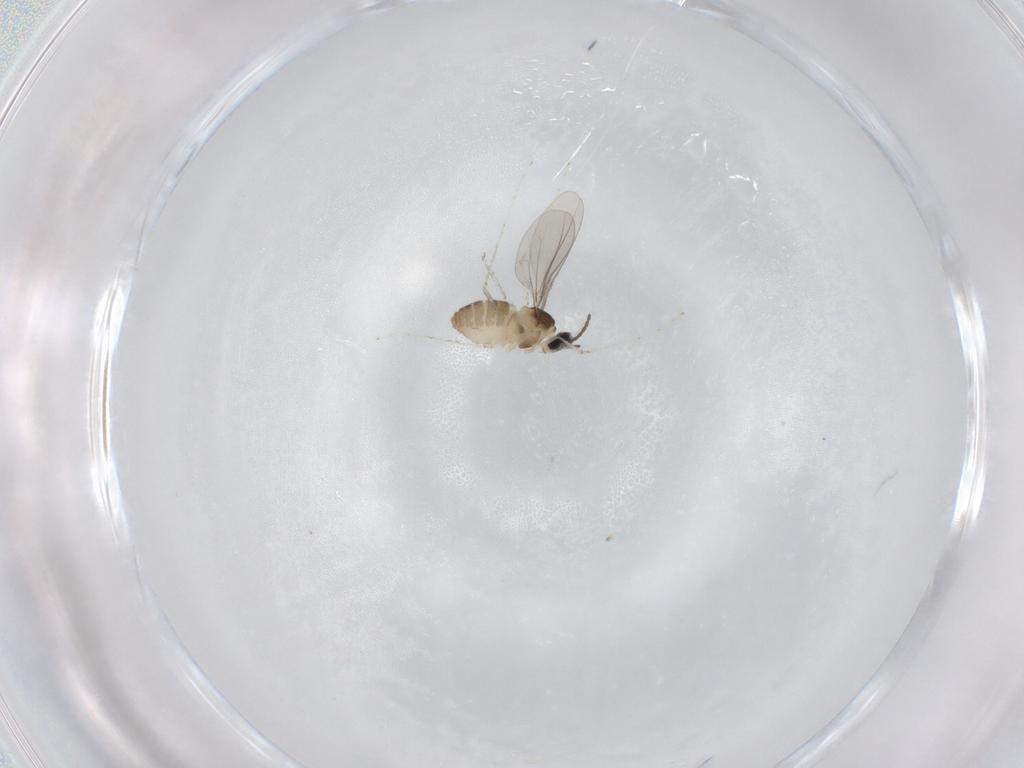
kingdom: Animalia
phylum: Arthropoda
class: Insecta
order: Diptera
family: Cecidomyiidae
